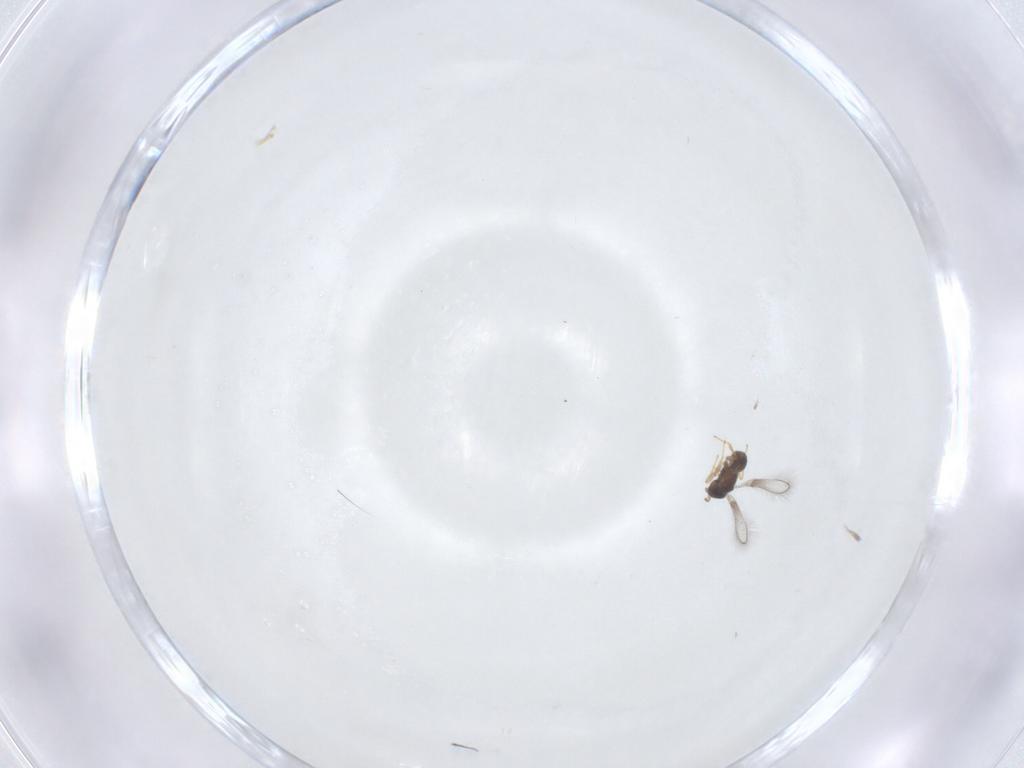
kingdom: Animalia
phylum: Arthropoda
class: Insecta
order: Hymenoptera
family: Mymaridae
